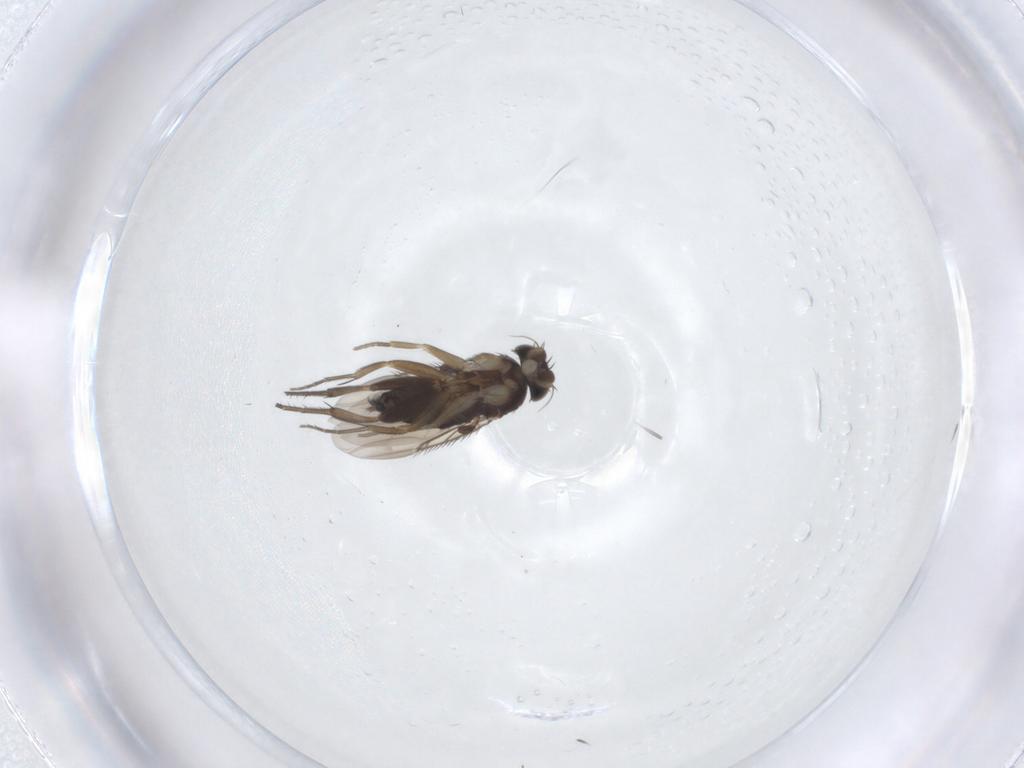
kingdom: Animalia
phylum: Arthropoda
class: Insecta
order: Diptera
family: Phoridae
